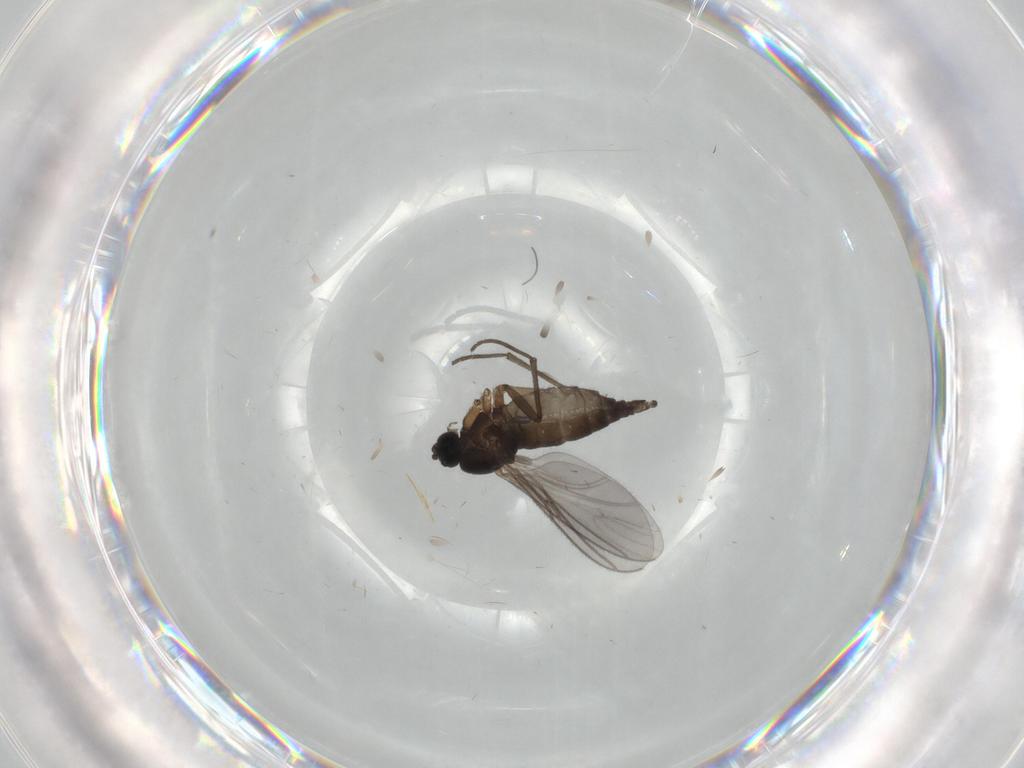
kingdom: Animalia
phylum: Arthropoda
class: Insecta
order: Diptera
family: Sciaridae
